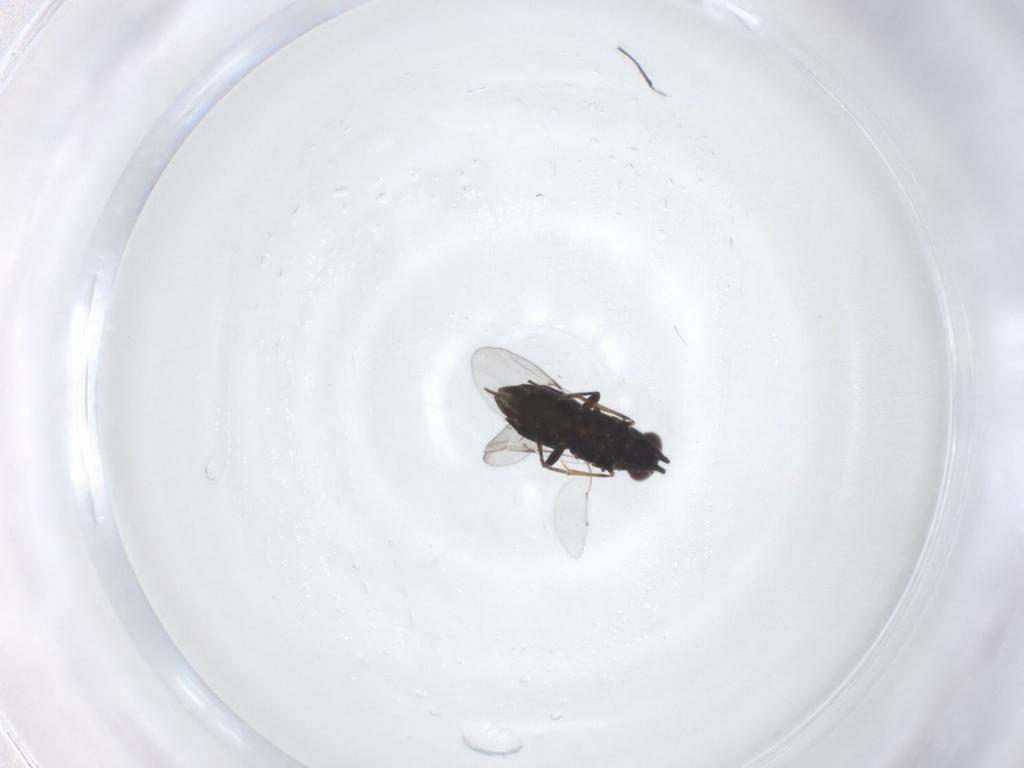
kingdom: Animalia
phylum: Arthropoda
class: Insecta
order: Hymenoptera
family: Encyrtidae
